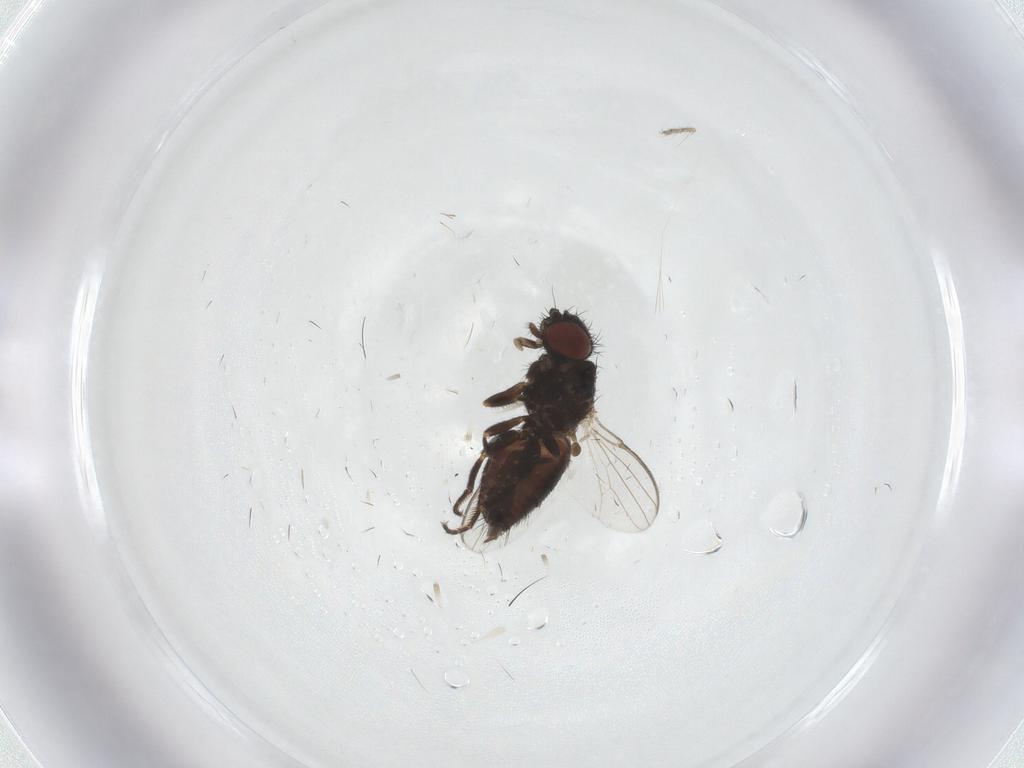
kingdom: Animalia
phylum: Arthropoda
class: Insecta
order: Diptera
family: Milichiidae
